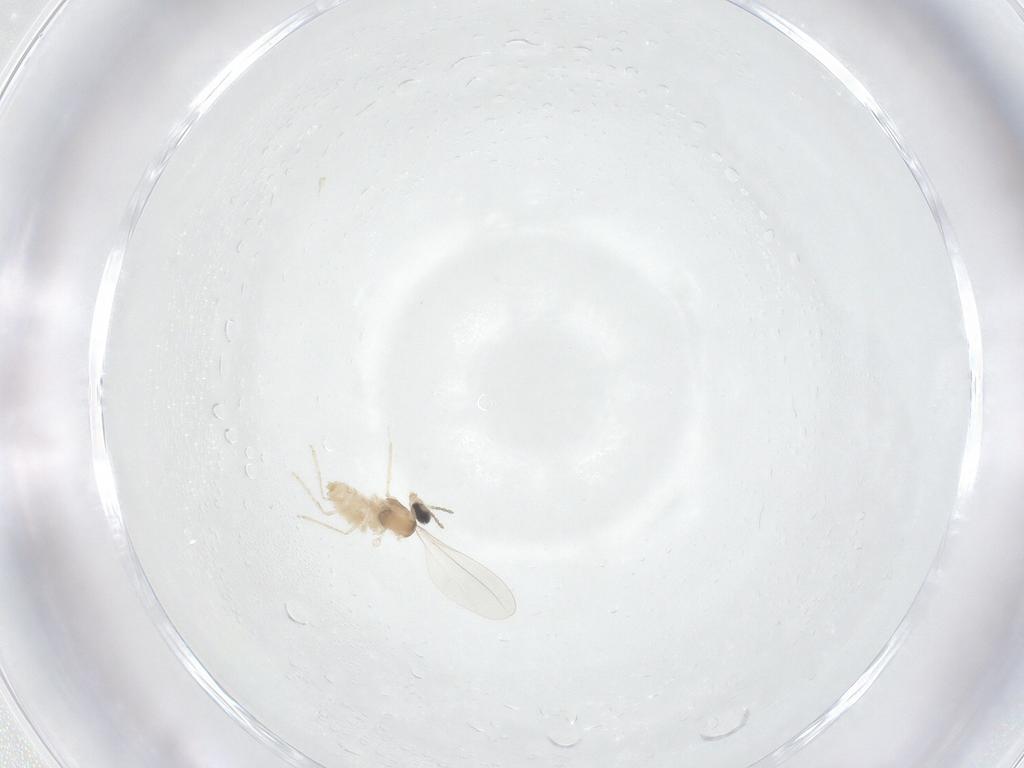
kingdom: Animalia
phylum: Arthropoda
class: Insecta
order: Diptera
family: Cecidomyiidae
